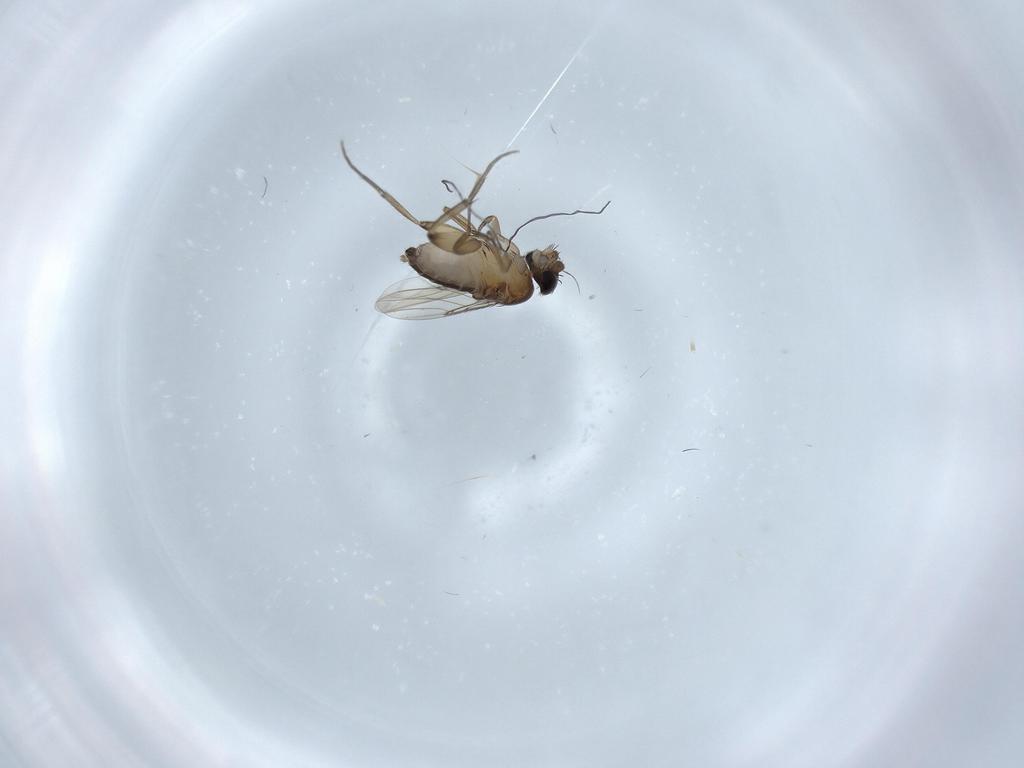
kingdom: Animalia
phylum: Arthropoda
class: Insecta
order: Diptera
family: Phoridae
